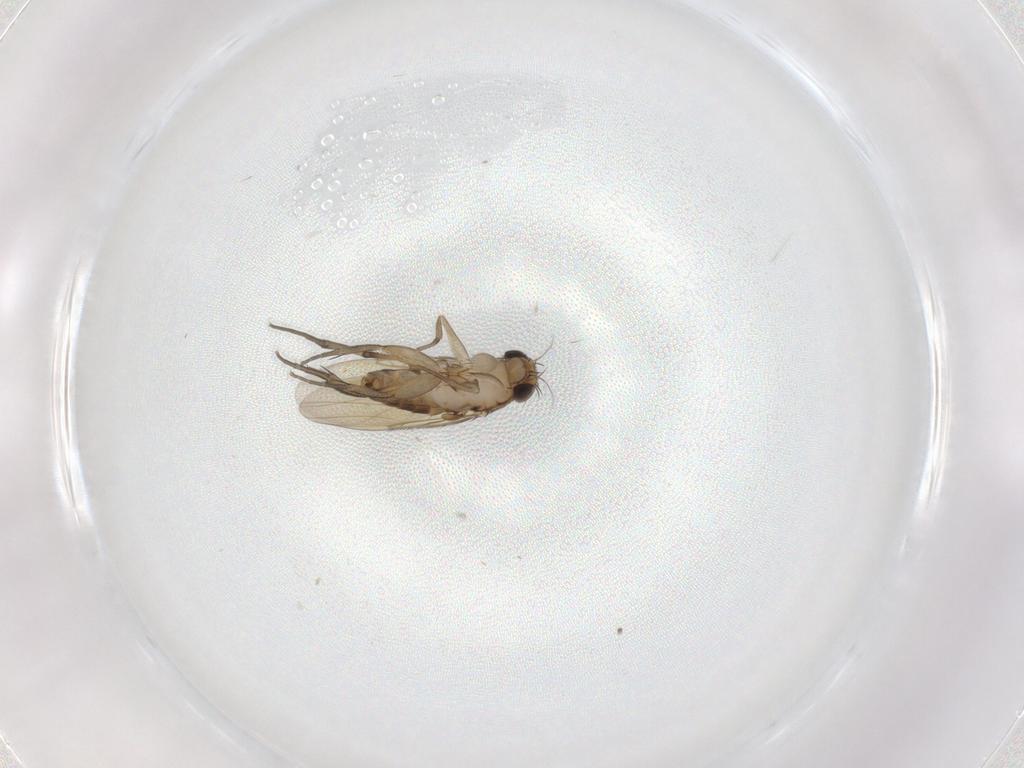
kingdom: Animalia
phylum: Arthropoda
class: Insecta
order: Diptera
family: Phoridae
